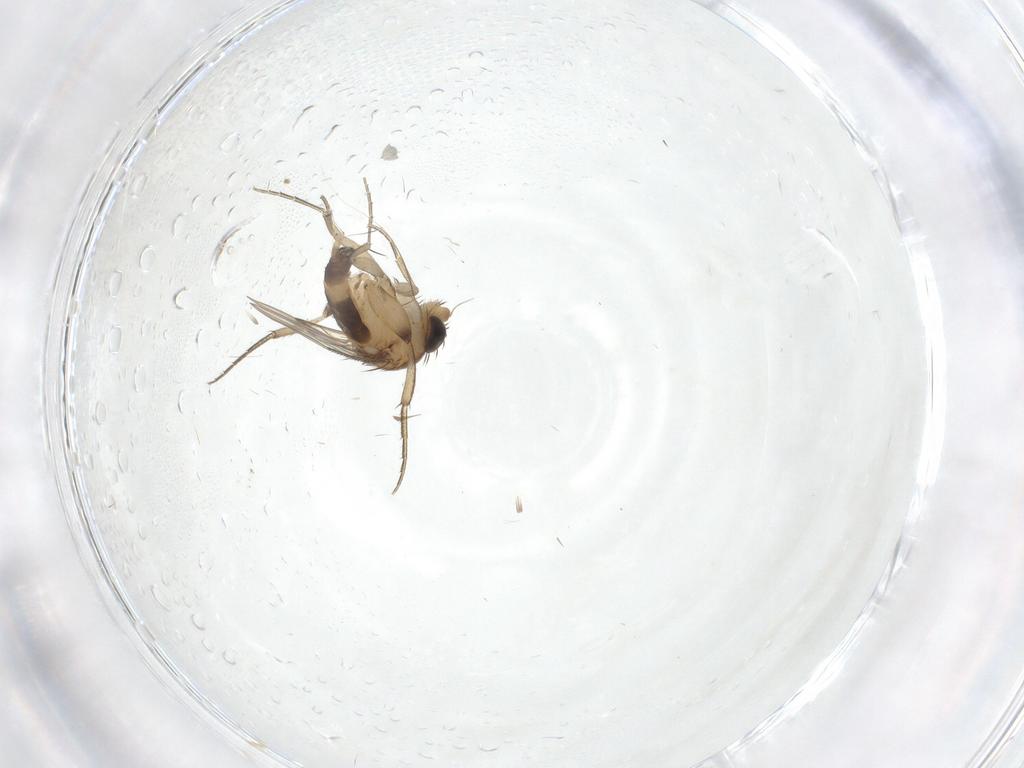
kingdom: Animalia
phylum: Arthropoda
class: Insecta
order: Diptera
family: Phoridae
